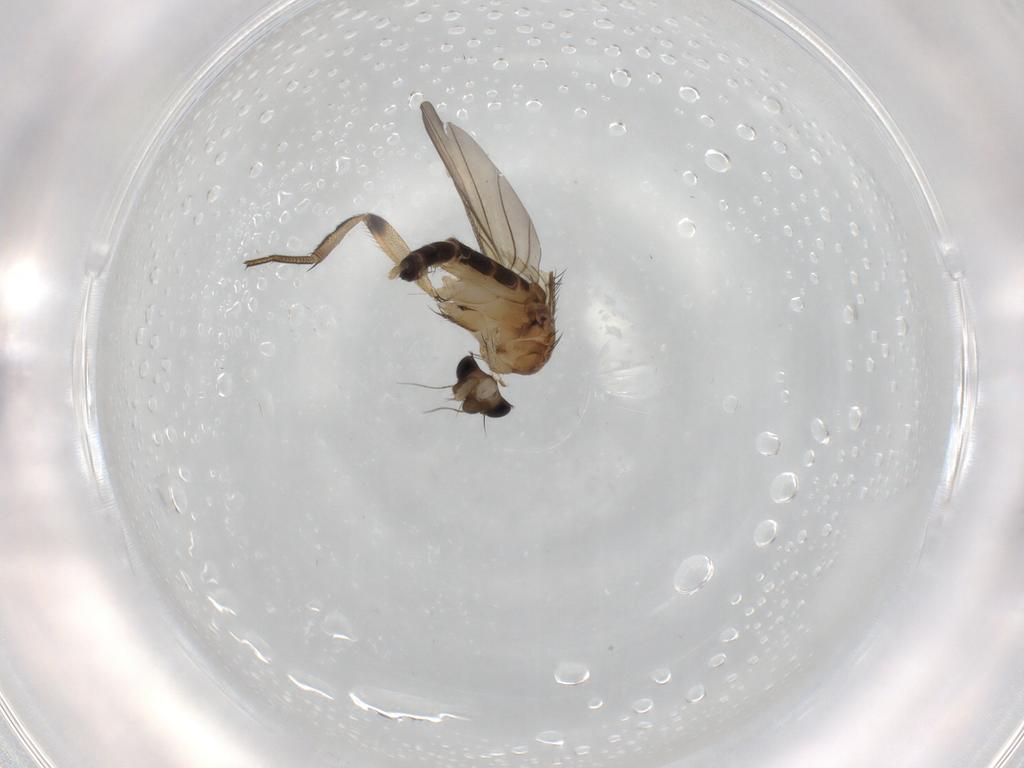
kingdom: Animalia
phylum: Arthropoda
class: Insecta
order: Diptera
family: Phoridae
